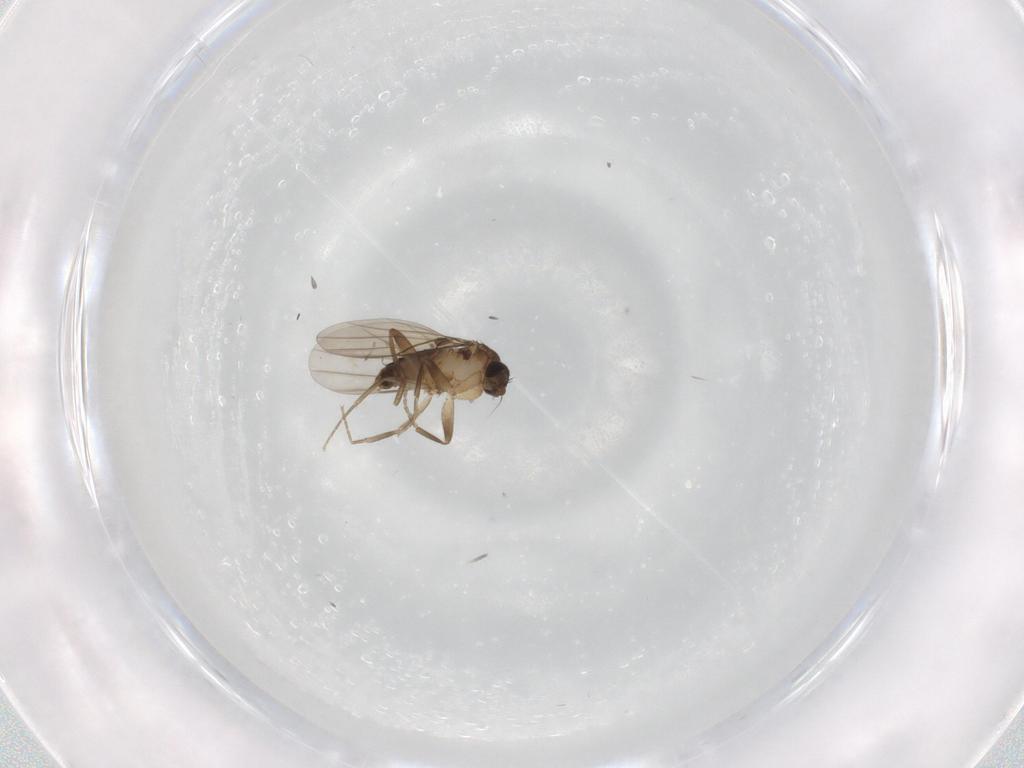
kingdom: Animalia
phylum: Arthropoda
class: Insecta
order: Diptera
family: Phoridae
